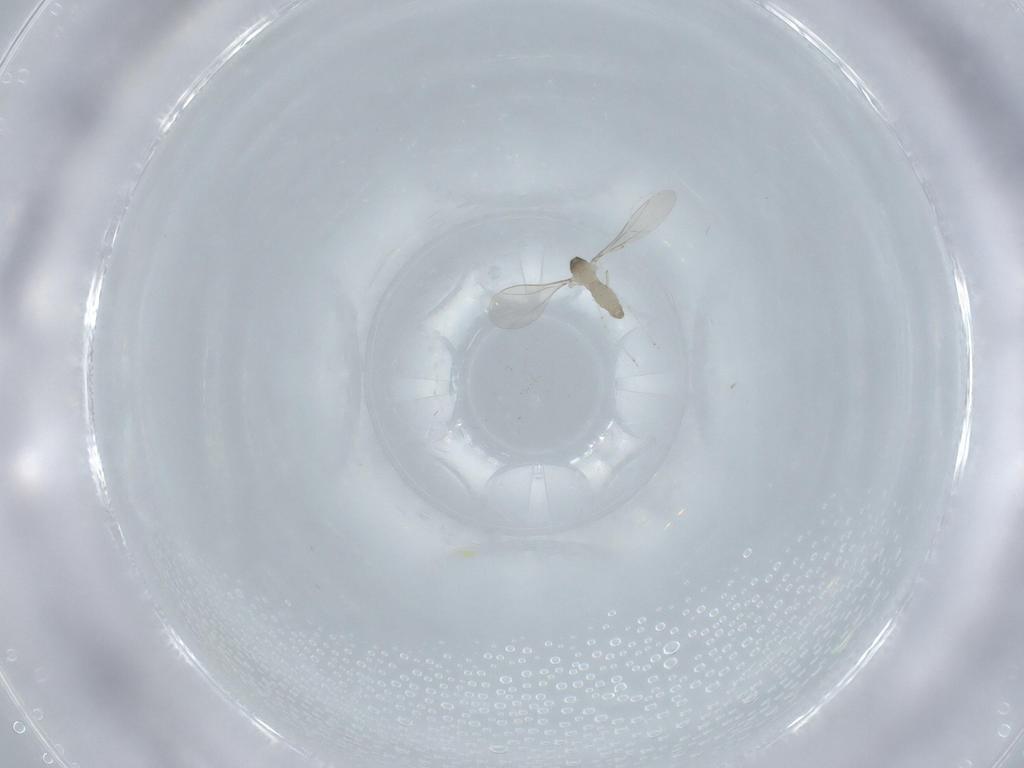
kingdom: Animalia
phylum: Arthropoda
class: Insecta
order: Diptera
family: Cecidomyiidae
